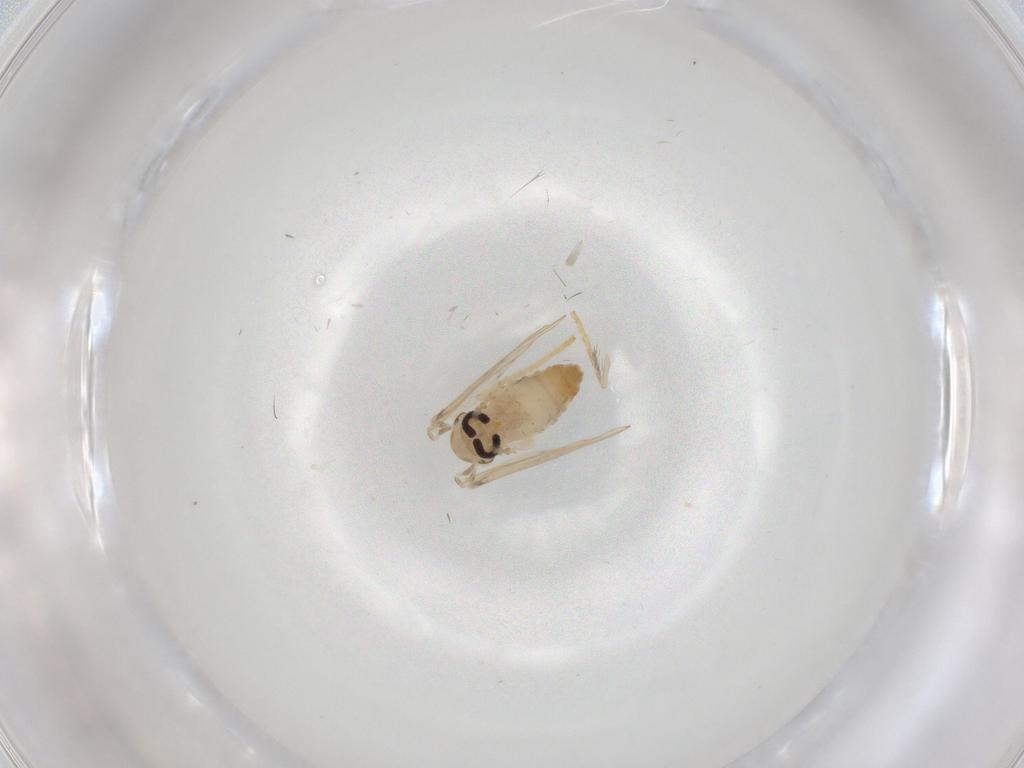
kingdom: Animalia
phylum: Arthropoda
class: Insecta
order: Diptera
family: Psychodidae
